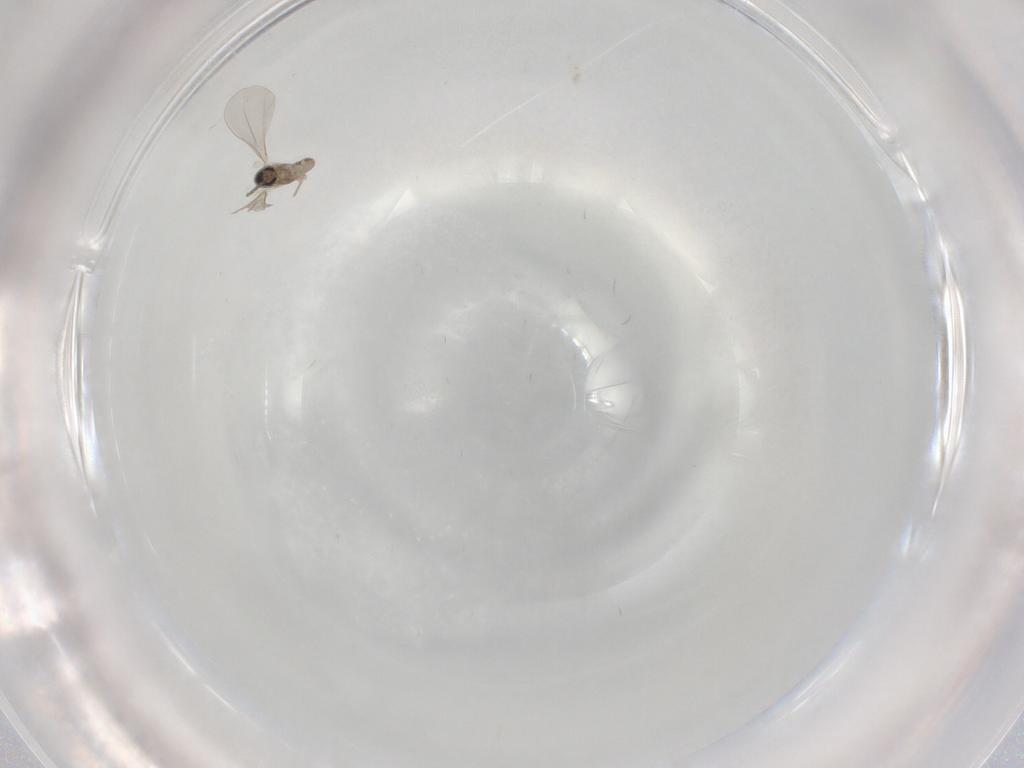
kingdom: Animalia
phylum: Arthropoda
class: Insecta
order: Diptera
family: Chironomidae
